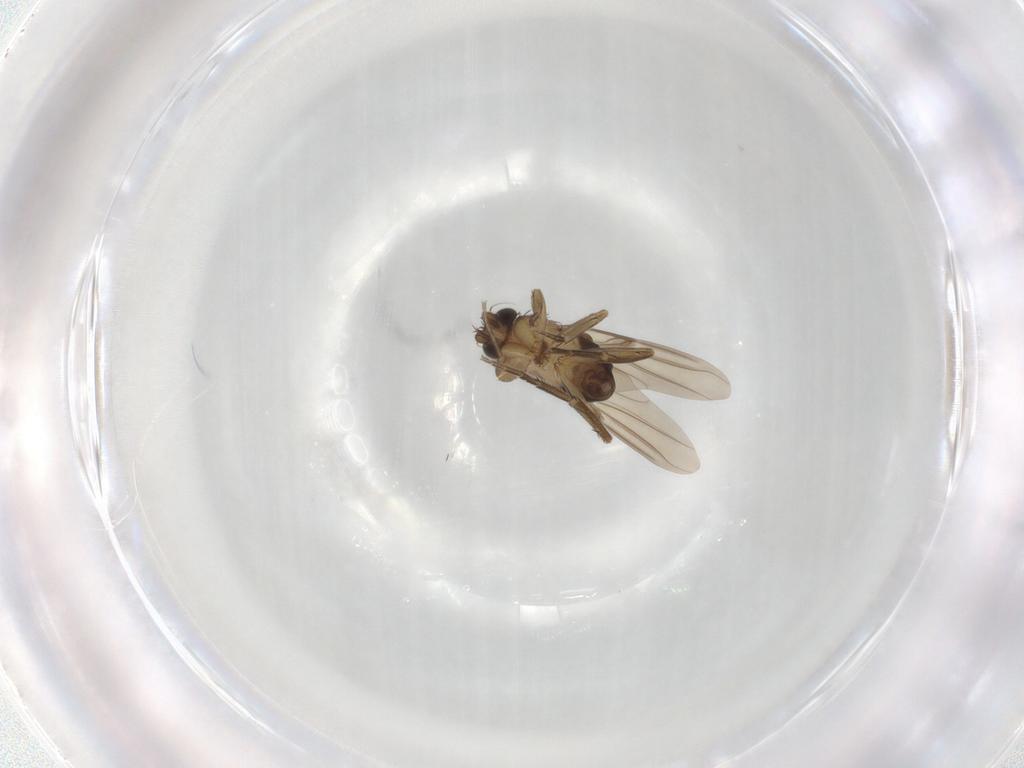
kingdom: Animalia
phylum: Arthropoda
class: Insecta
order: Diptera
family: Phoridae
